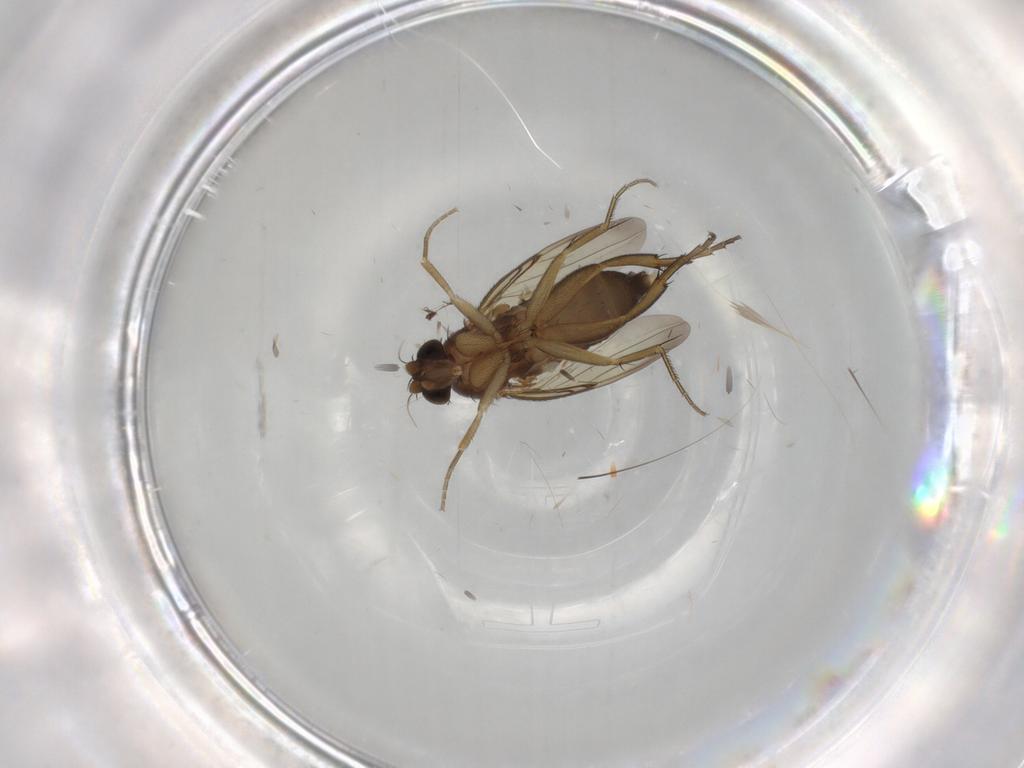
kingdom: Animalia
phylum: Arthropoda
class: Insecta
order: Diptera
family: Phoridae
